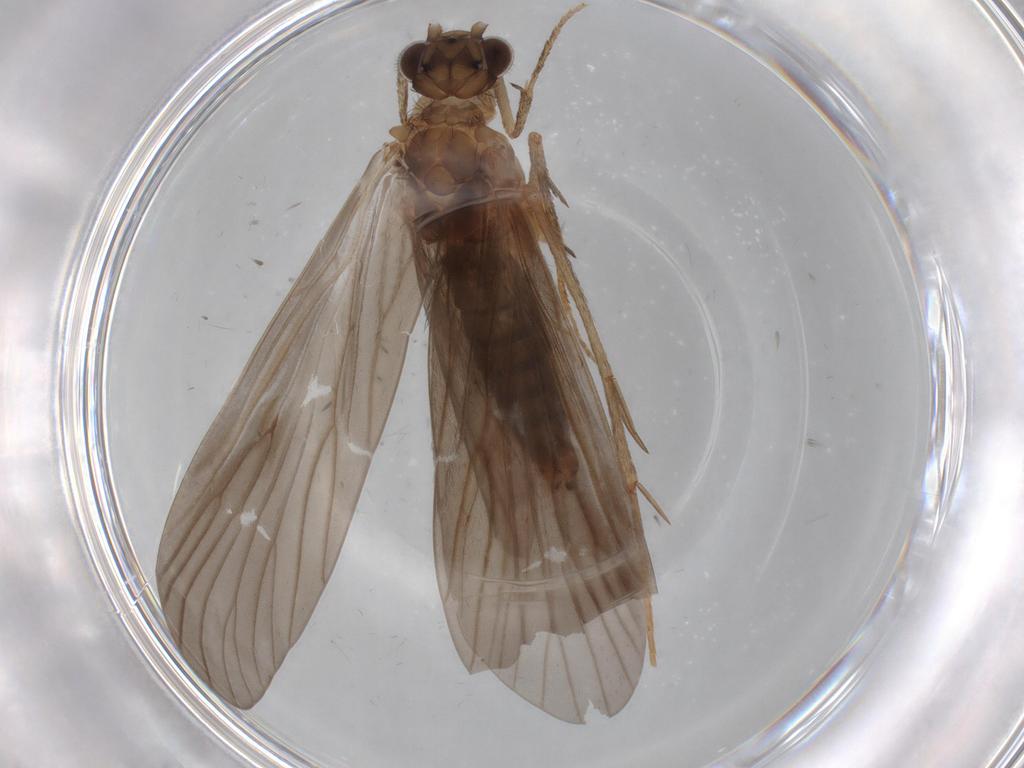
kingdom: Animalia
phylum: Arthropoda
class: Insecta
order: Trichoptera
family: Philopotamidae
